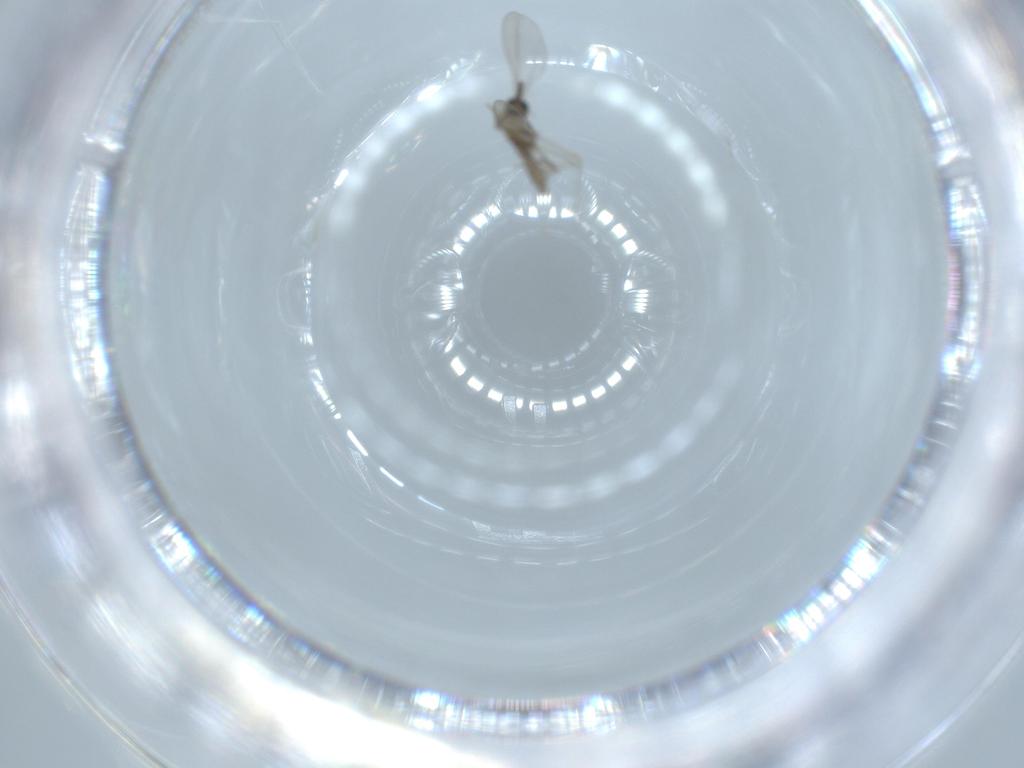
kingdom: Animalia
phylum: Arthropoda
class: Insecta
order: Diptera
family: Cecidomyiidae
